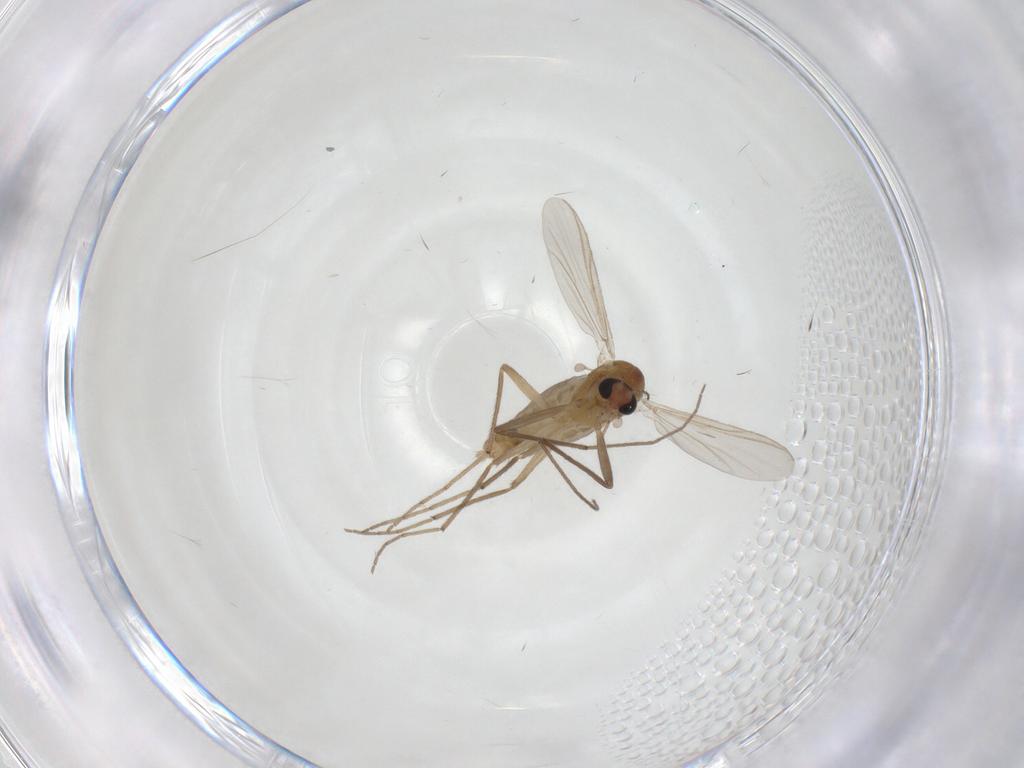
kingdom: Animalia
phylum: Arthropoda
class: Insecta
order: Diptera
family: Chironomidae
